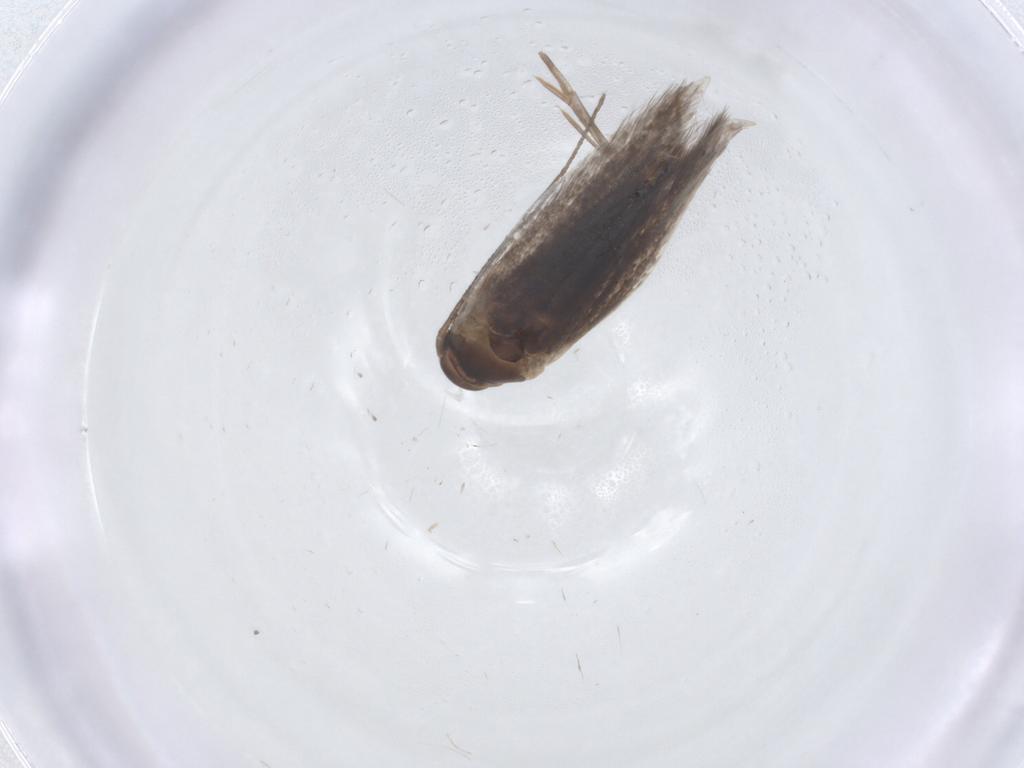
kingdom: Animalia
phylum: Arthropoda
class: Insecta
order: Lepidoptera
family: Elachistidae
